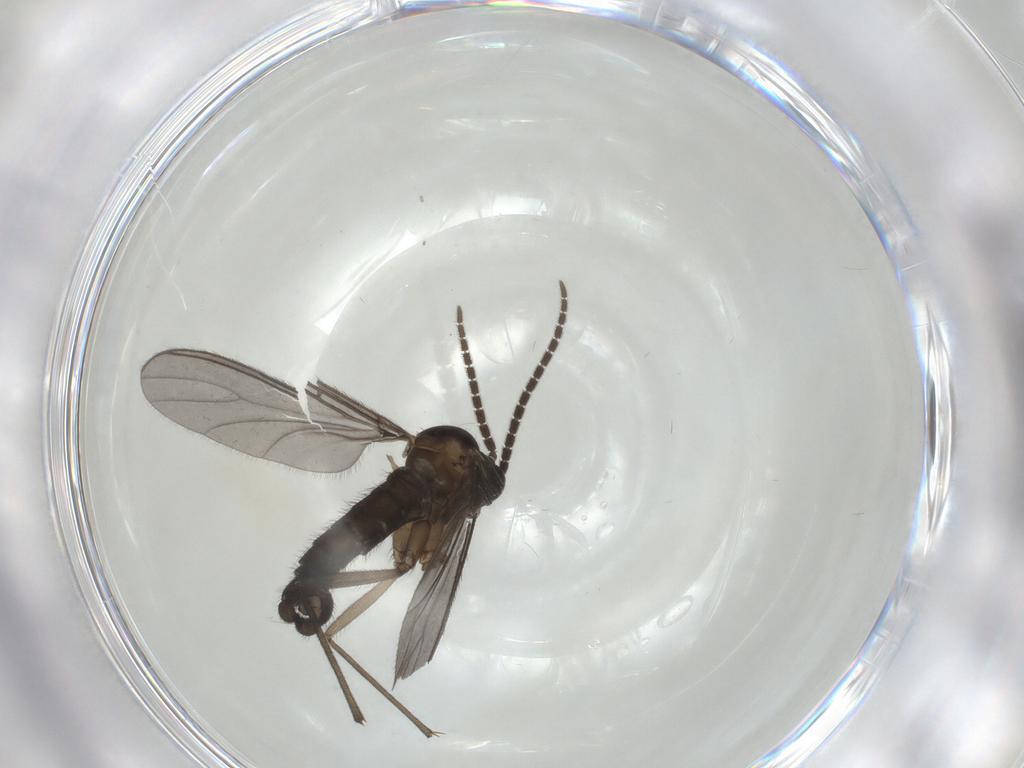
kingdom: Animalia
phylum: Arthropoda
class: Insecta
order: Diptera
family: Sciaridae
